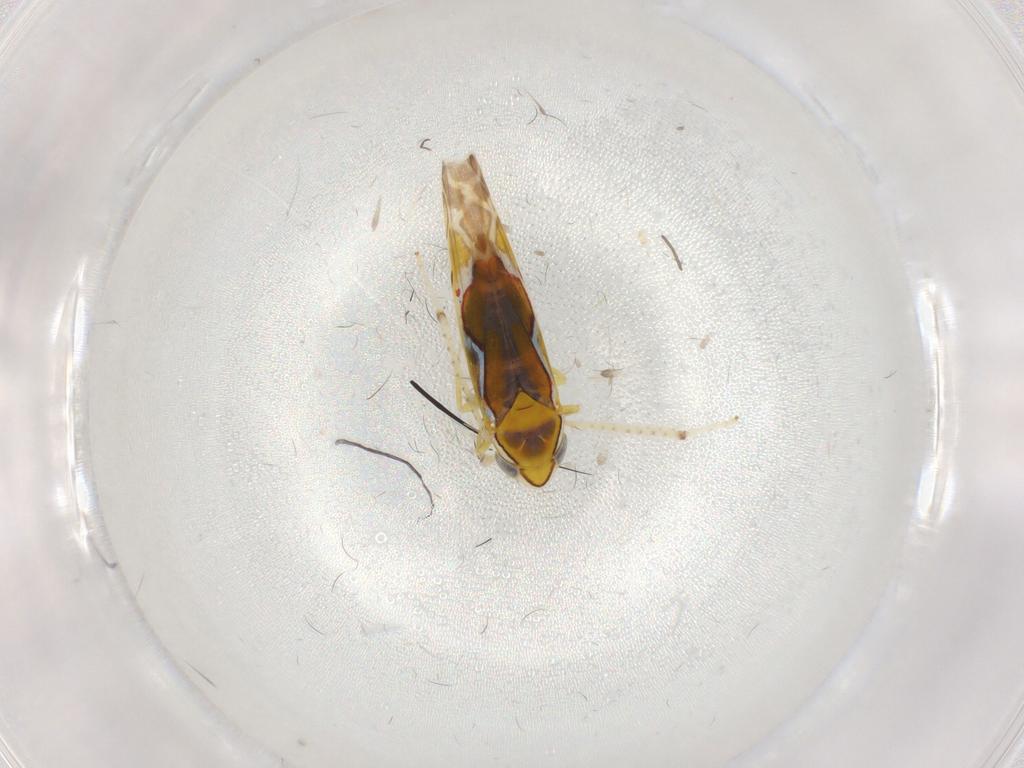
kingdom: Animalia
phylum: Arthropoda
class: Insecta
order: Hemiptera
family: Cicadellidae
